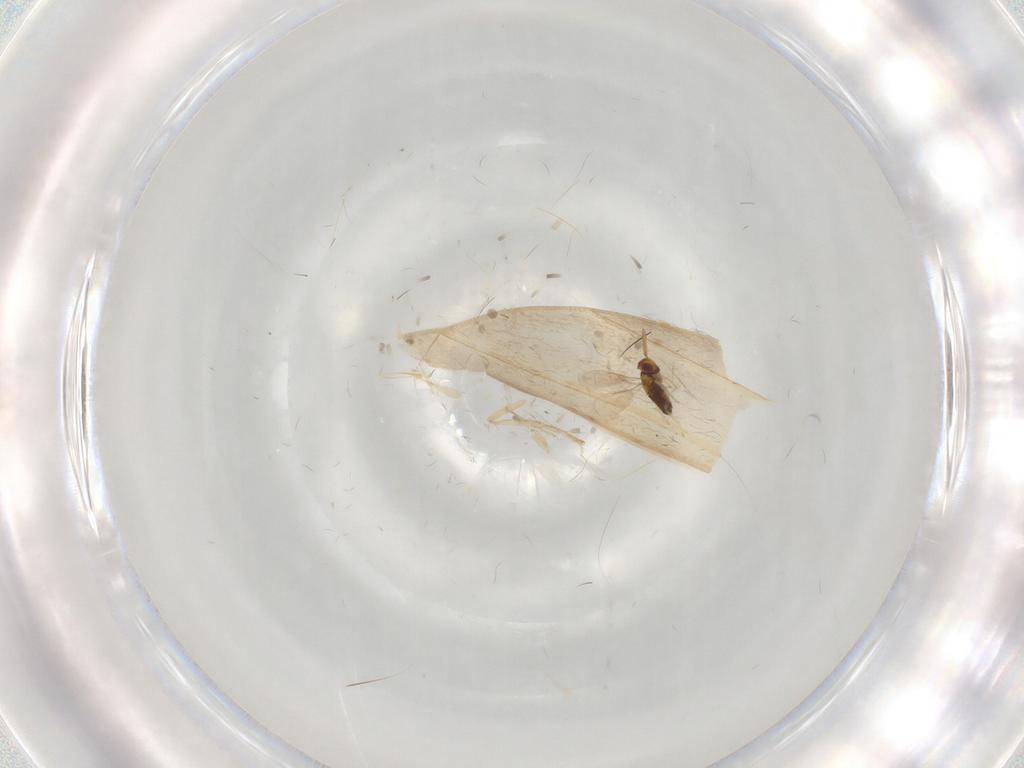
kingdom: Animalia
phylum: Arthropoda
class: Insecta
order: Hymenoptera
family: Aphelinidae
